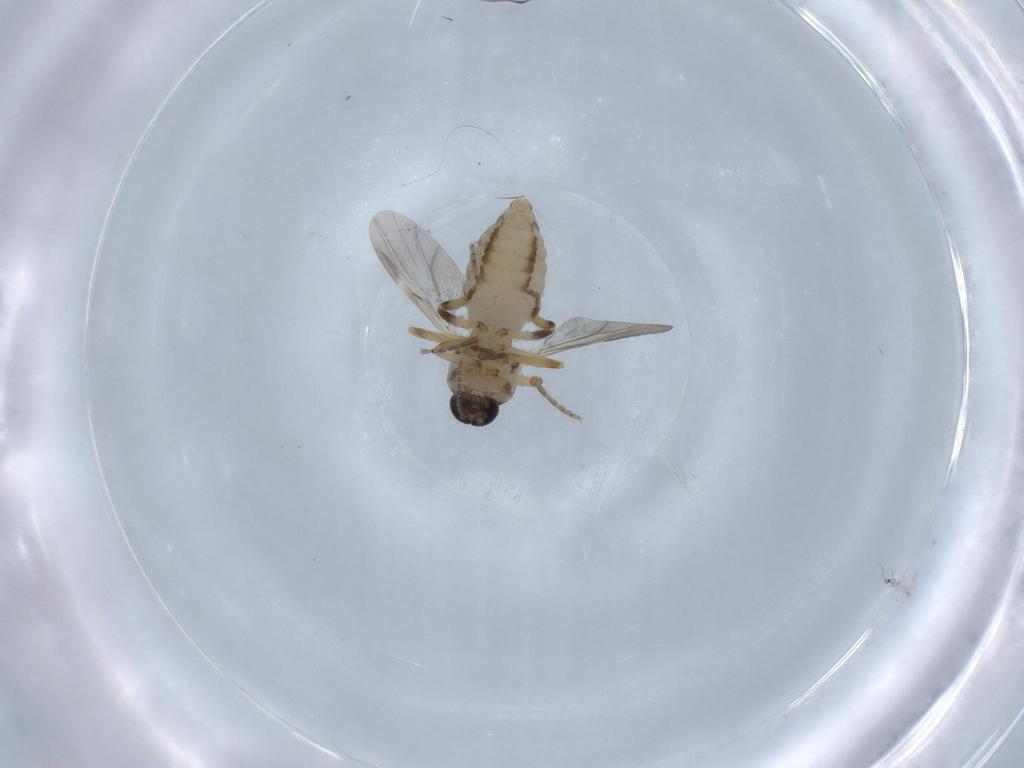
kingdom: Animalia
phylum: Arthropoda
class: Insecta
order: Diptera
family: Ceratopogonidae
